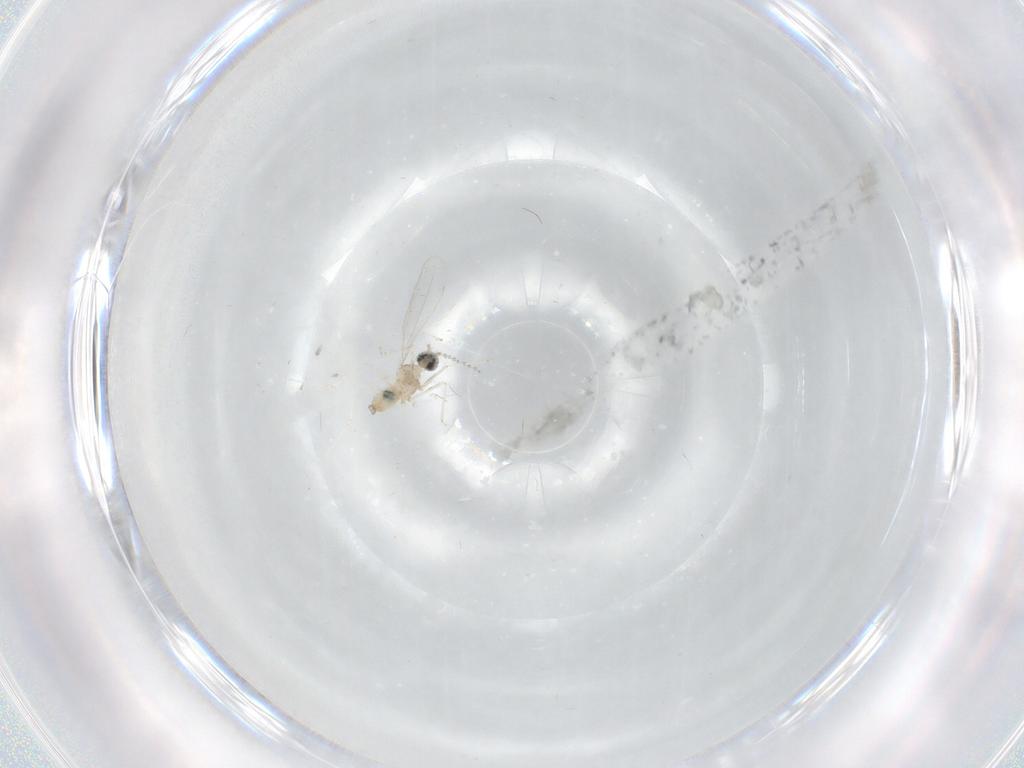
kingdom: Animalia
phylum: Arthropoda
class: Insecta
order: Diptera
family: Cecidomyiidae
